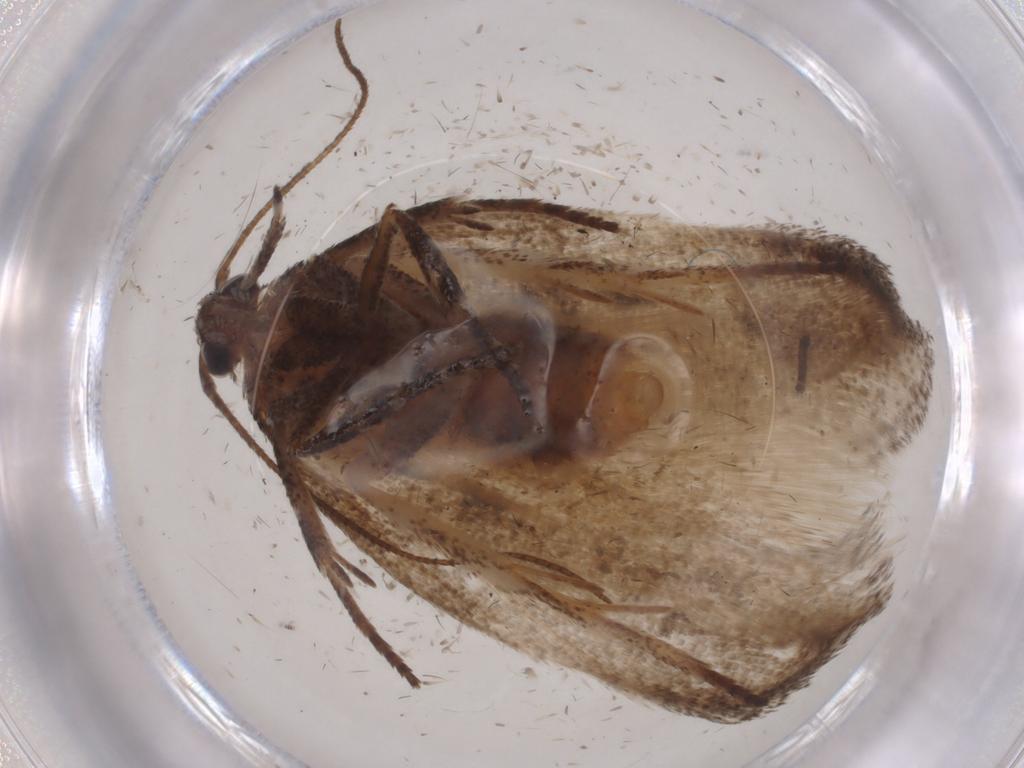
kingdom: Animalia
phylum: Arthropoda
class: Insecta
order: Lepidoptera
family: Cosmopterigidae
